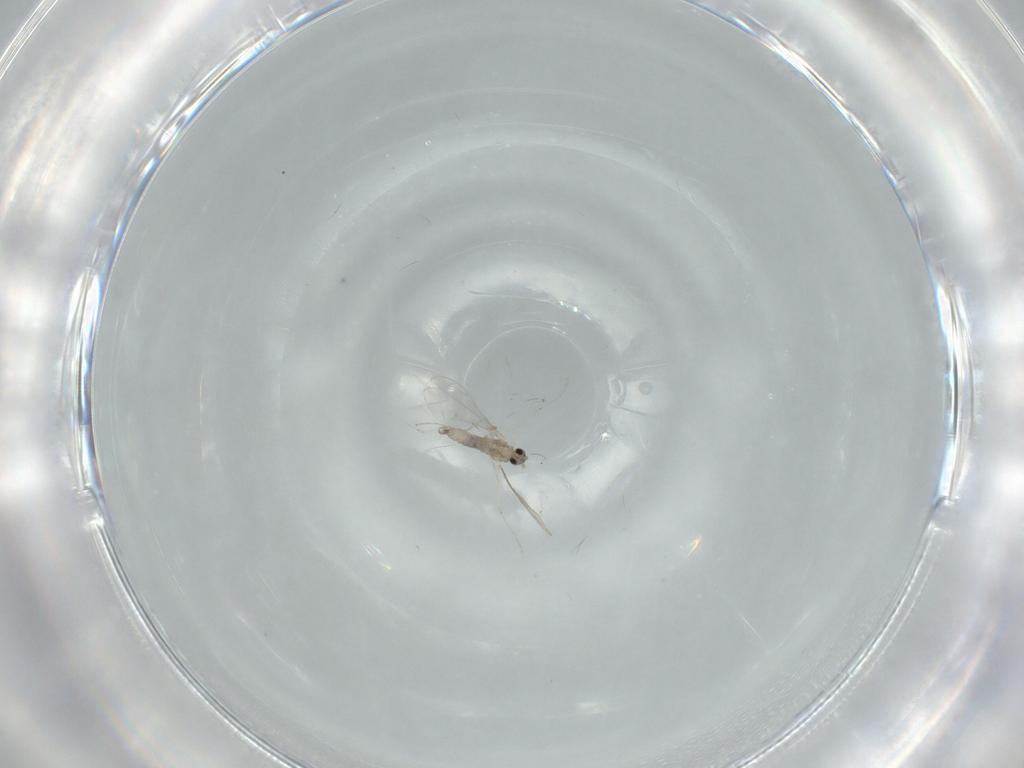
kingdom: Animalia
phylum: Arthropoda
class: Insecta
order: Diptera
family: Cecidomyiidae
